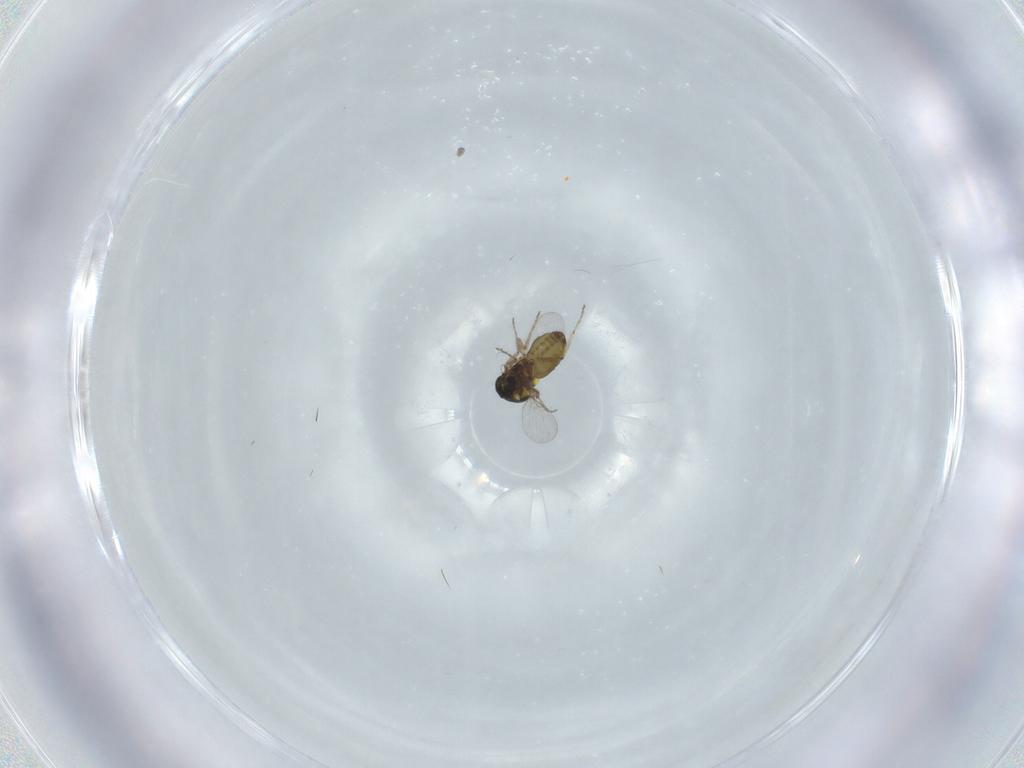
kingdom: Animalia
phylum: Arthropoda
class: Insecta
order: Diptera
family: Ceratopogonidae
